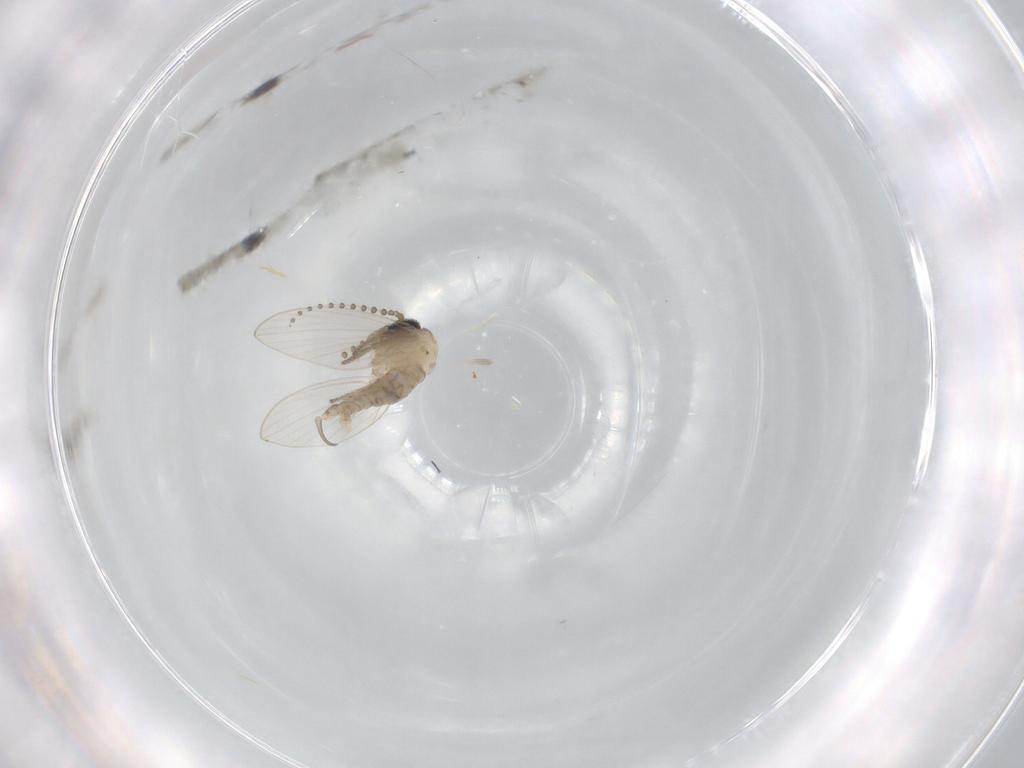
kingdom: Animalia
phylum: Arthropoda
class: Insecta
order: Diptera
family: Psychodidae
